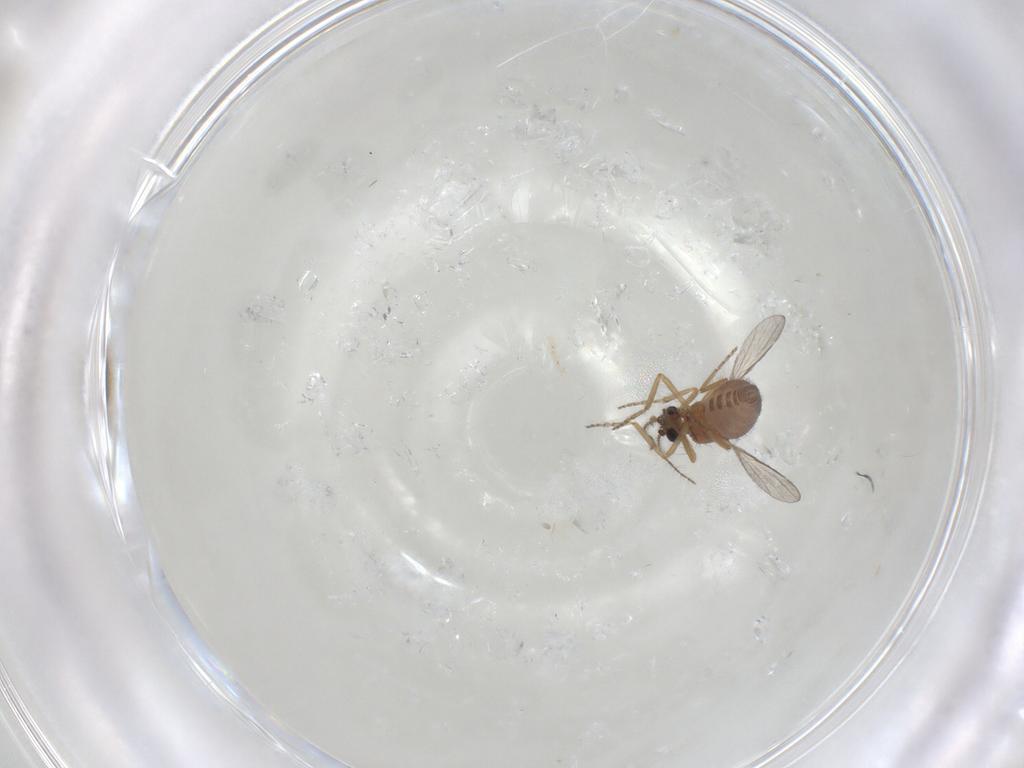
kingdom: Animalia
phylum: Arthropoda
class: Insecta
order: Diptera
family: Ceratopogonidae
